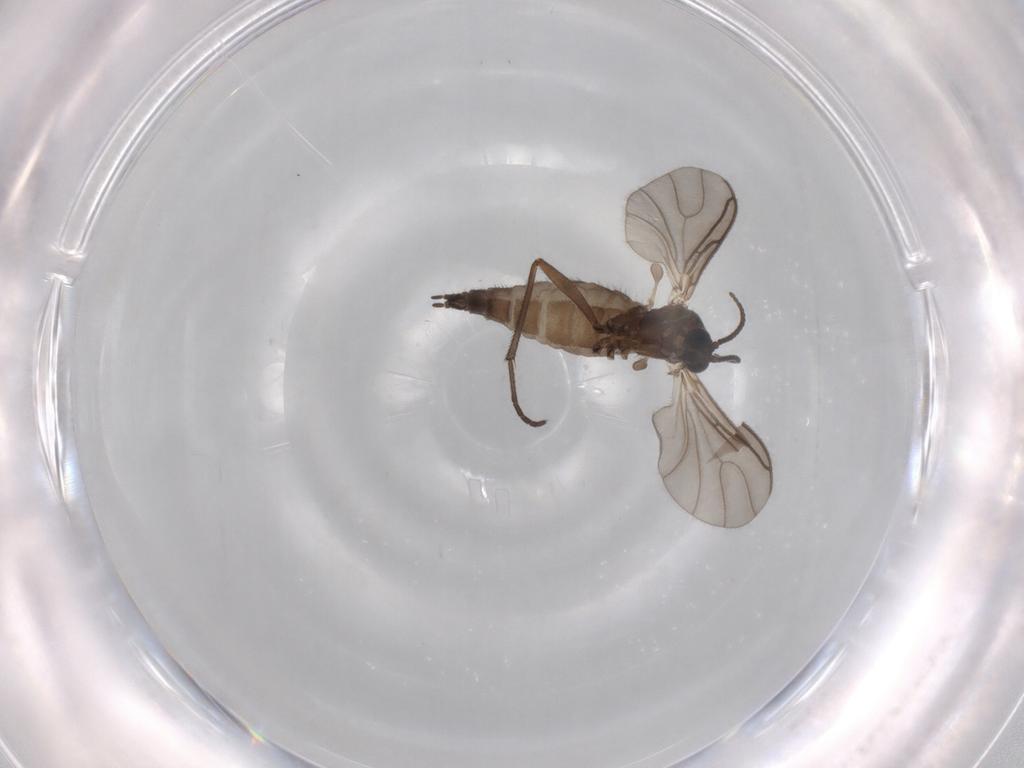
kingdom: Animalia
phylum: Arthropoda
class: Insecta
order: Diptera
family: Sciaridae
